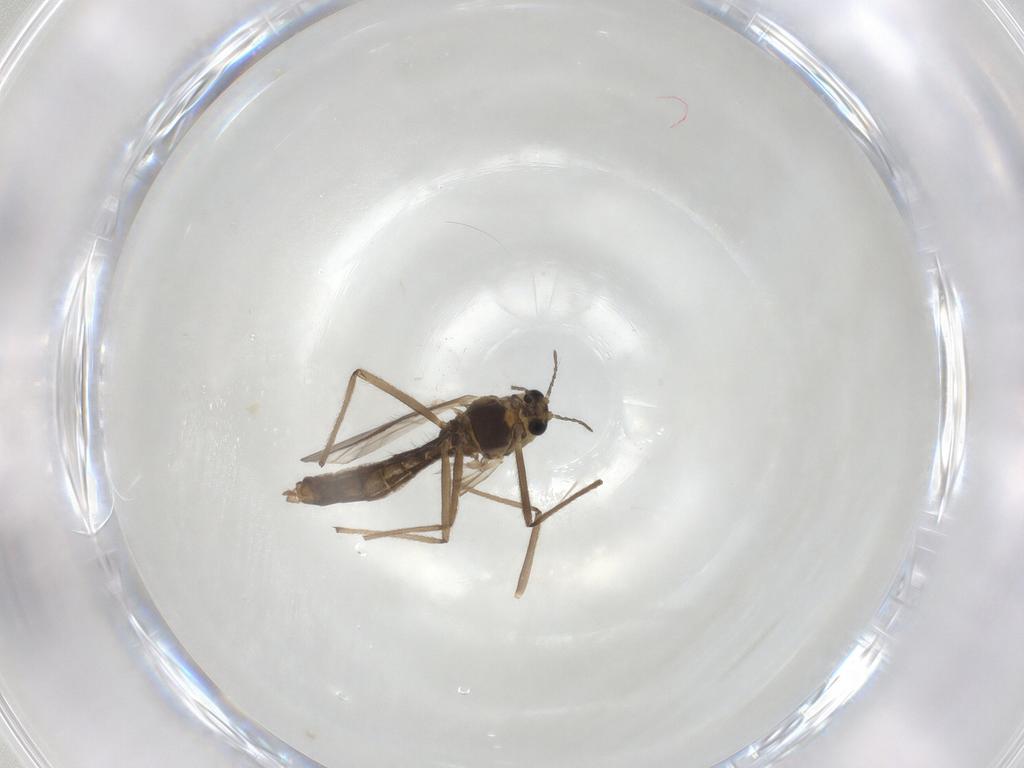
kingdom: Animalia
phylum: Arthropoda
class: Insecta
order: Diptera
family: Chironomidae
